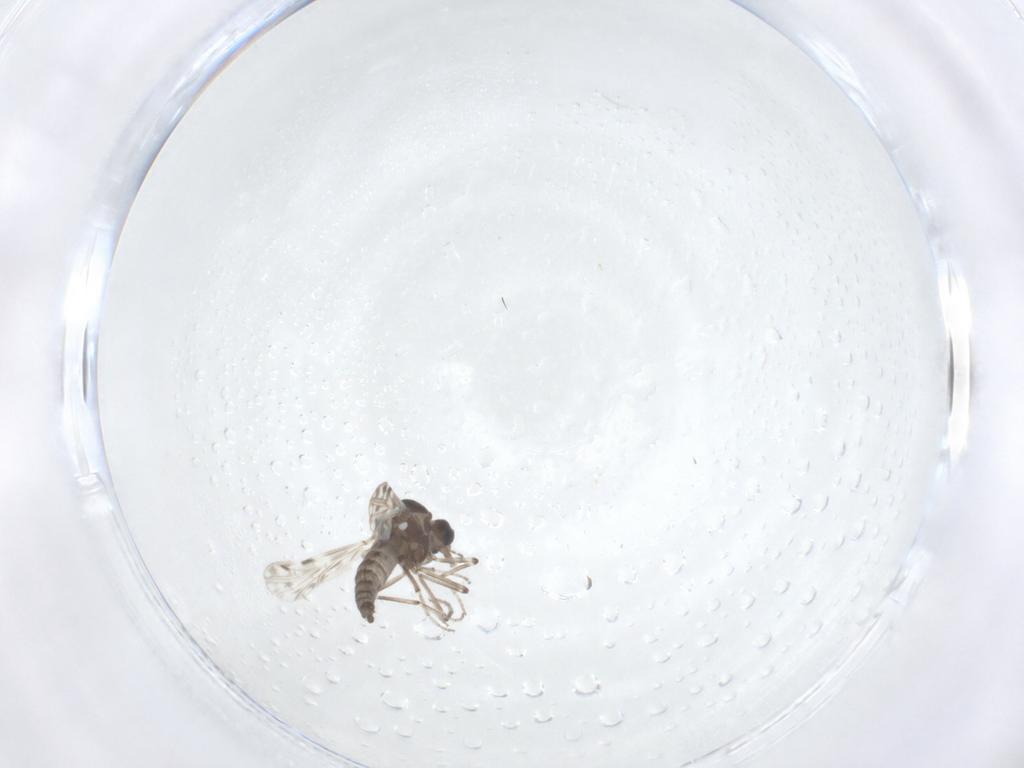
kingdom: Animalia
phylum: Arthropoda
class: Insecta
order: Diptera
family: Ceratopogonidae
